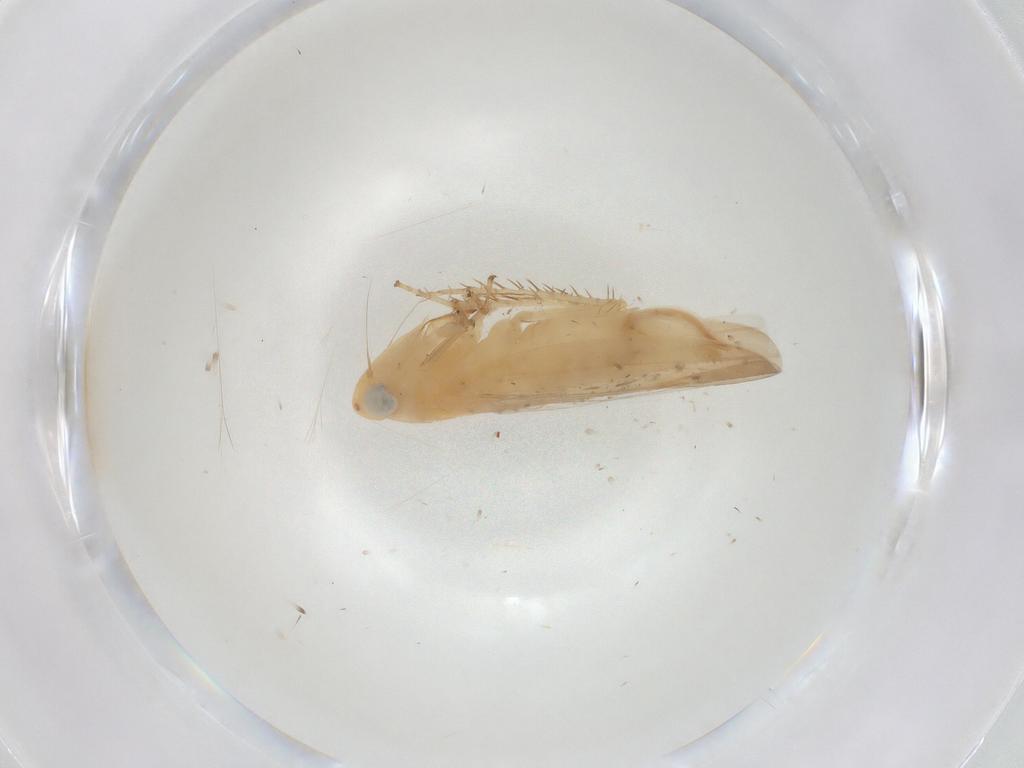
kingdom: Animalia
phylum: Arthropoda
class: Insecta
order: Hemiptera
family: Cicadellidae
